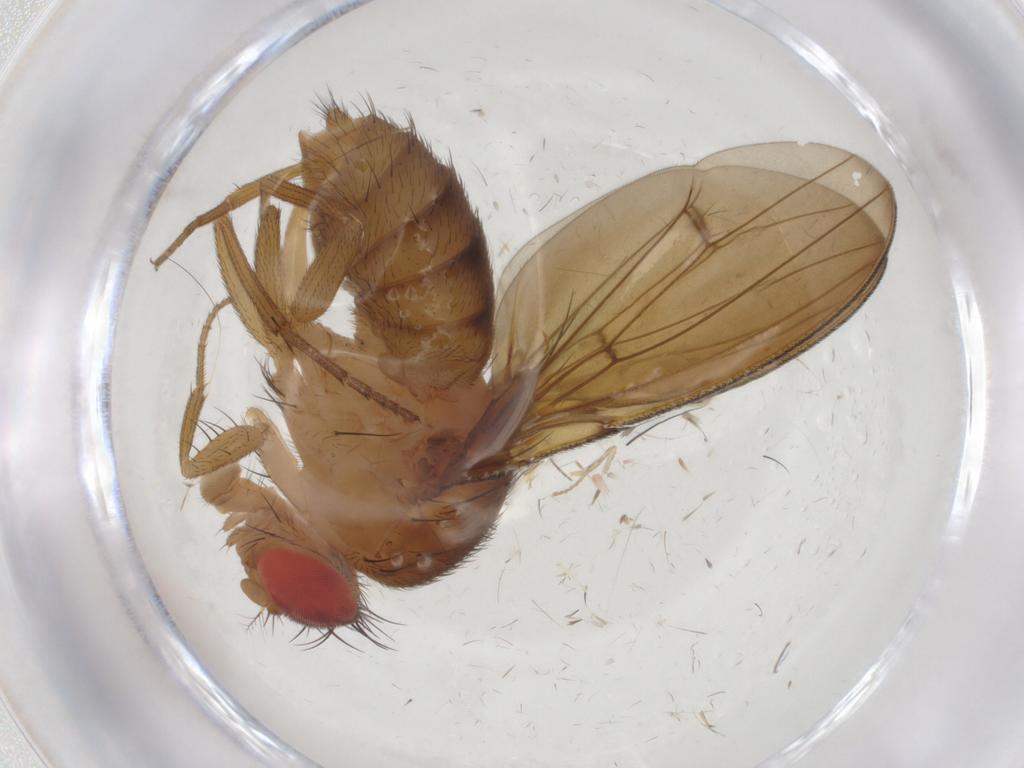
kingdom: Animalia
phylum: Arthropoda
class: Insecta
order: Diptera
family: Drosophilidae
